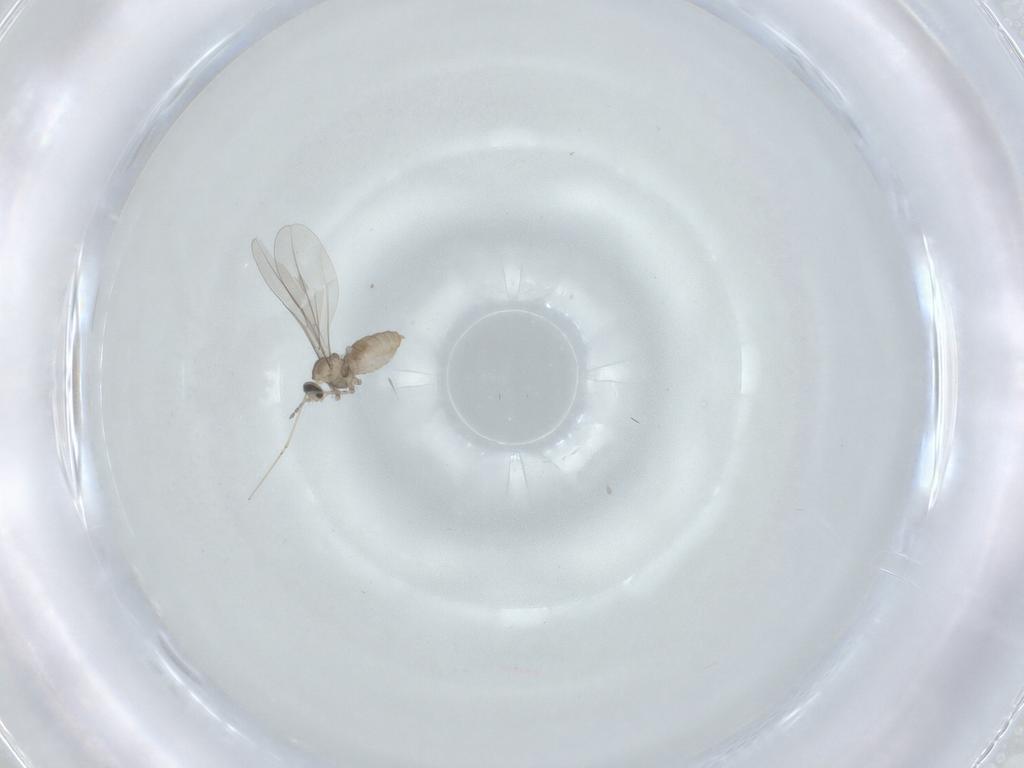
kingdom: Animalia
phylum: Arthropoda
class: Insecta
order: Diptera
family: Cecidomyiidae
